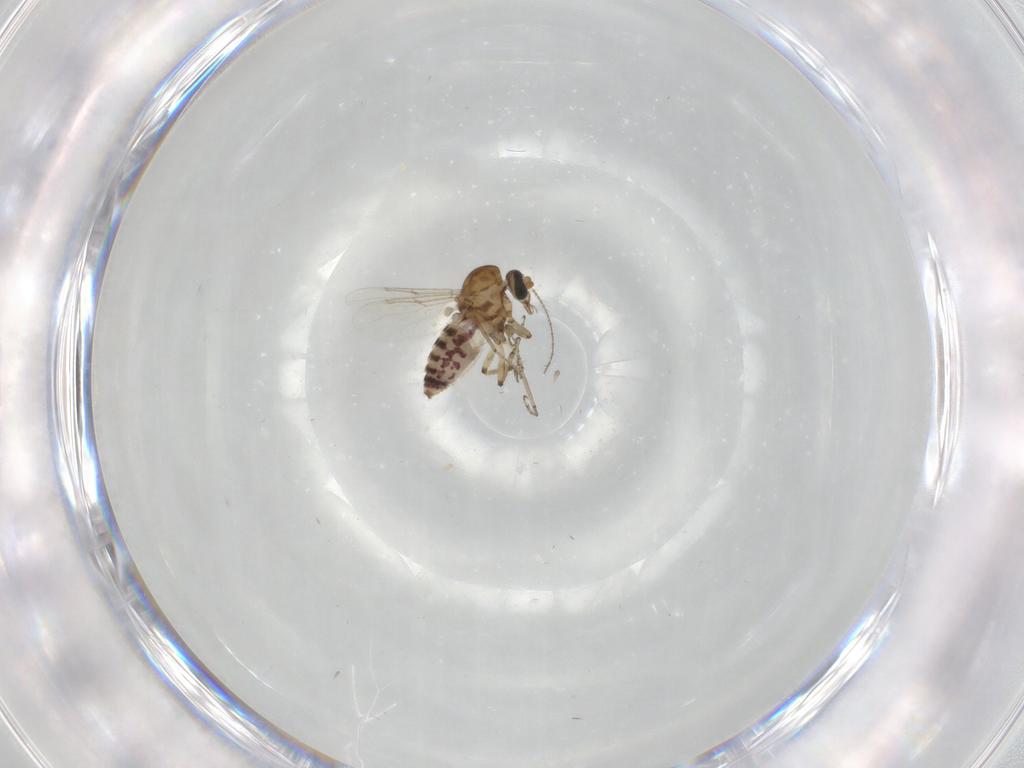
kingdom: Animalia
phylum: Arthropoda
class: Insecta
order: Diptera
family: Ceratopogonidae
